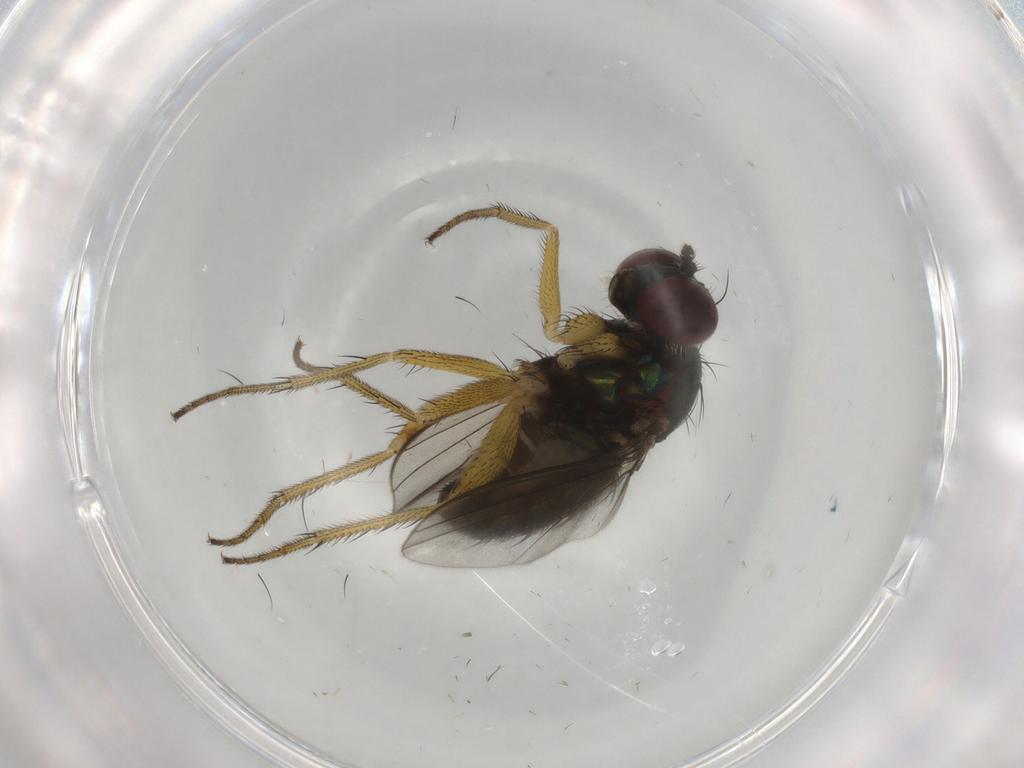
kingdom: Animalia
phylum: Arthropoda
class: Insecta
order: Diptera
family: Dolichopodidae
